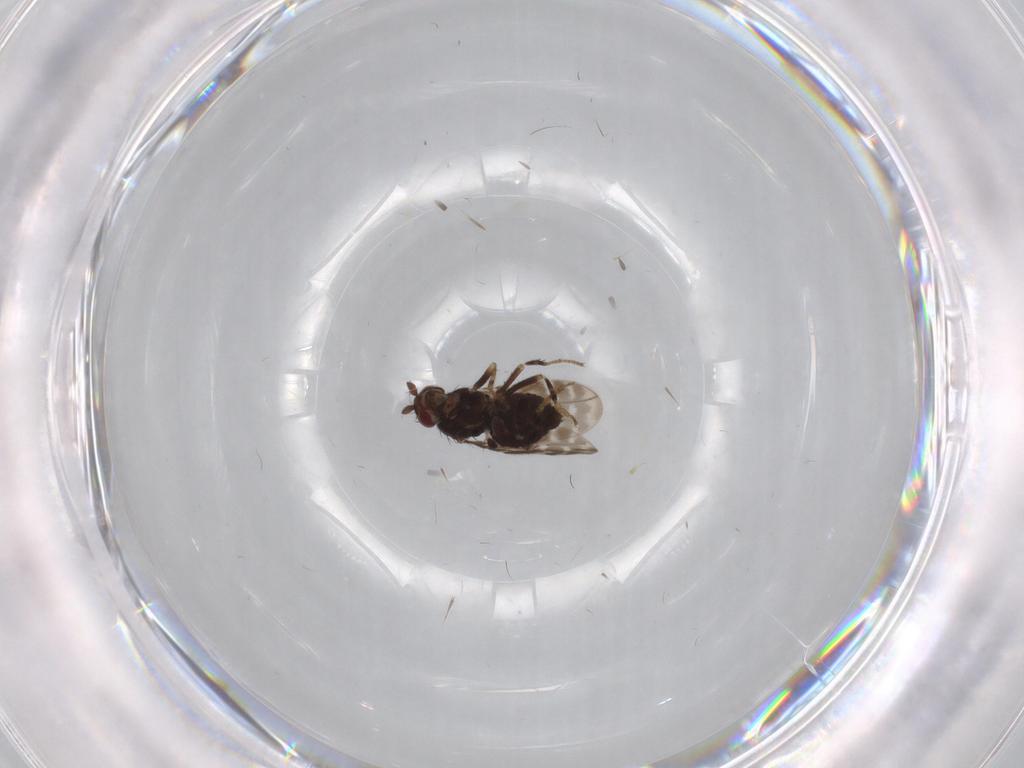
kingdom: Animalia
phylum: Arthropoda
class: Insecta
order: Diptera
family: Sphaeroceridae
